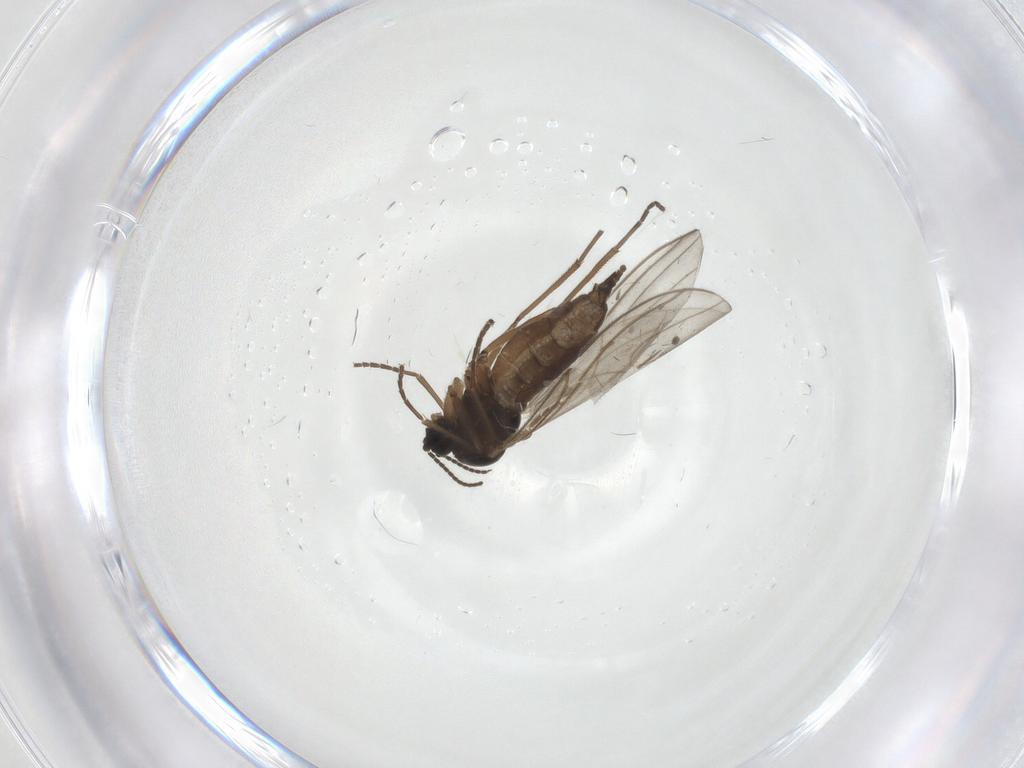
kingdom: Animalia
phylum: Arthropoda
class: Insecta
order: Diptera
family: Sciaridae
